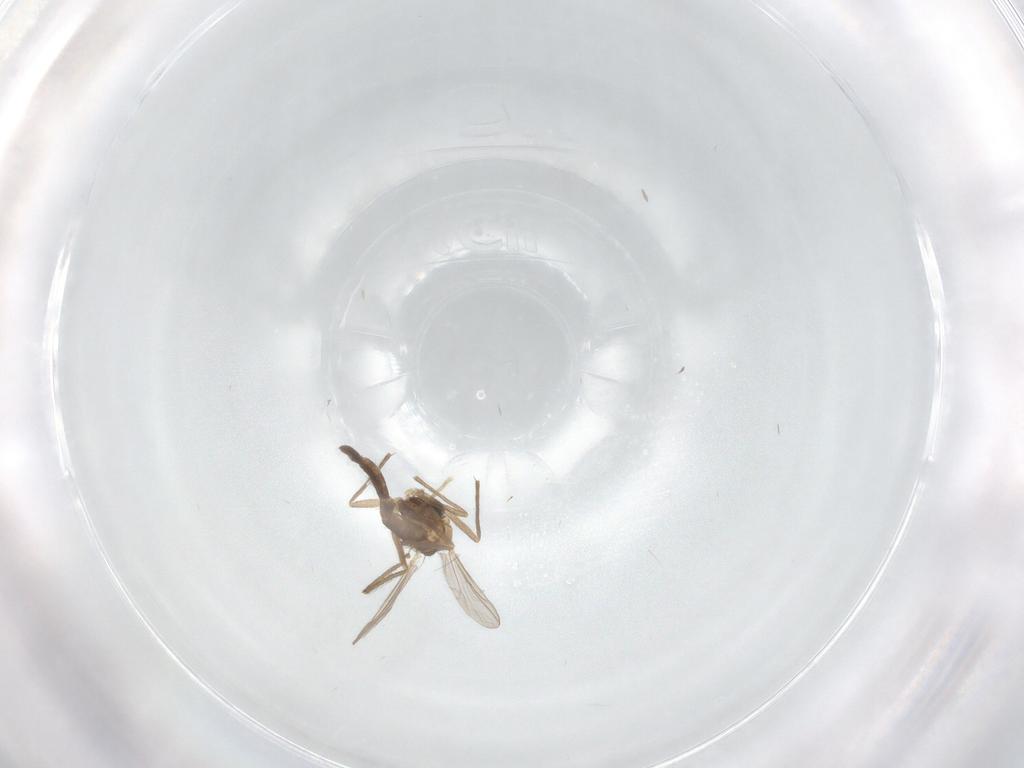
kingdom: Animalia
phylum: Arthropoda
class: Insecta
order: Diptera
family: Chironomidae
